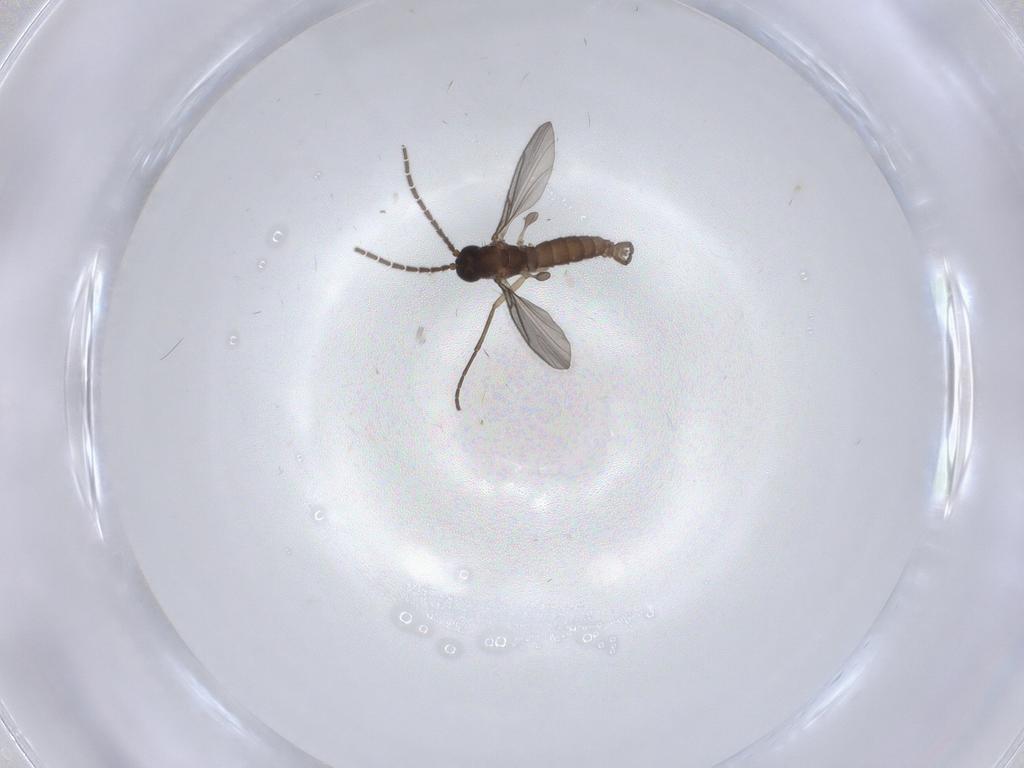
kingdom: Animalia
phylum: Arthropoda
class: Insecta
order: Diptera
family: Sciaridae
